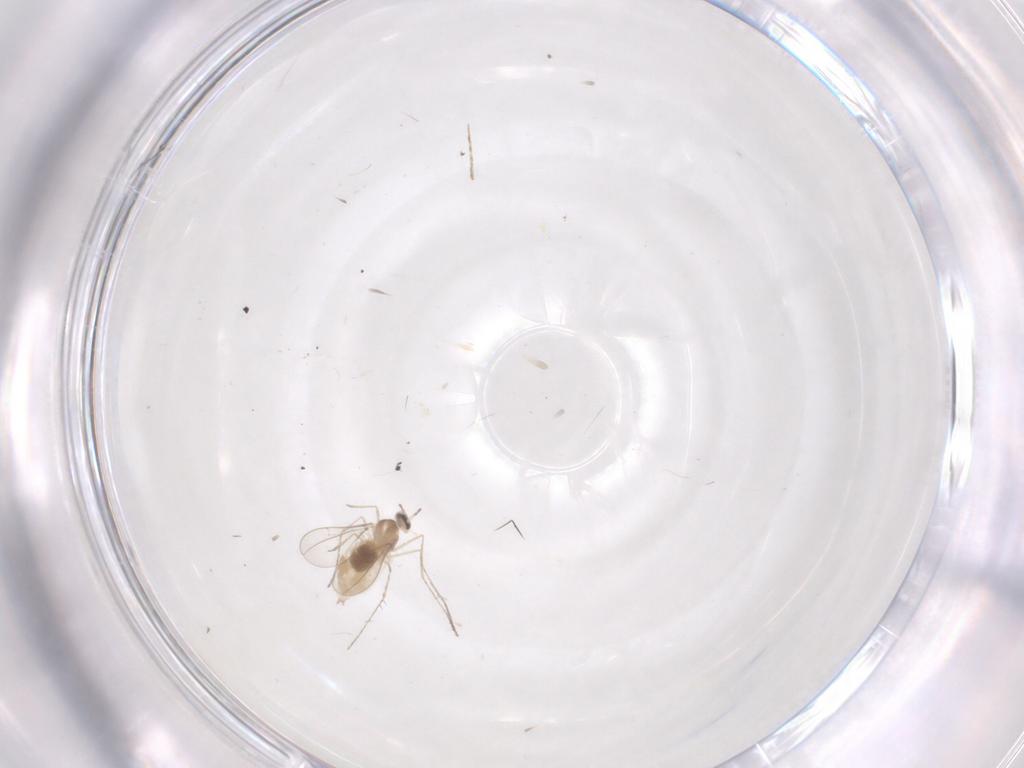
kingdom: Animalia
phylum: Arthropoda
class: Insecta
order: Diptera
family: Cecidomyiidae
